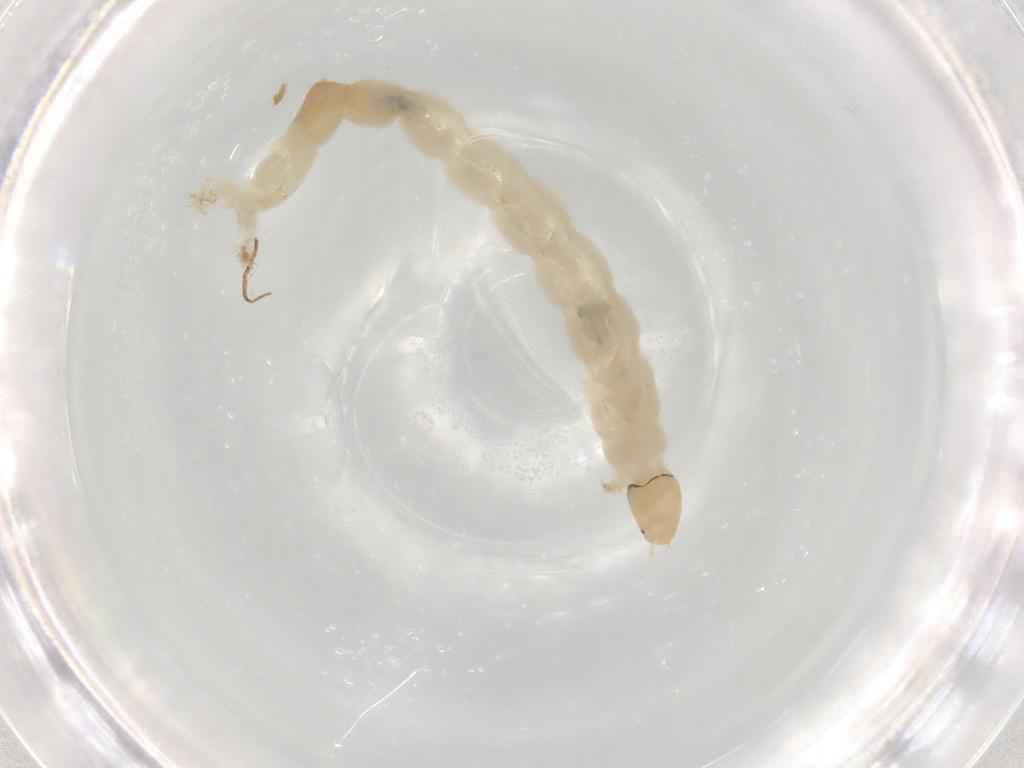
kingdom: Animalia
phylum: Arthropoda
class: Insecta
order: Diptera
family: Chironomidae
